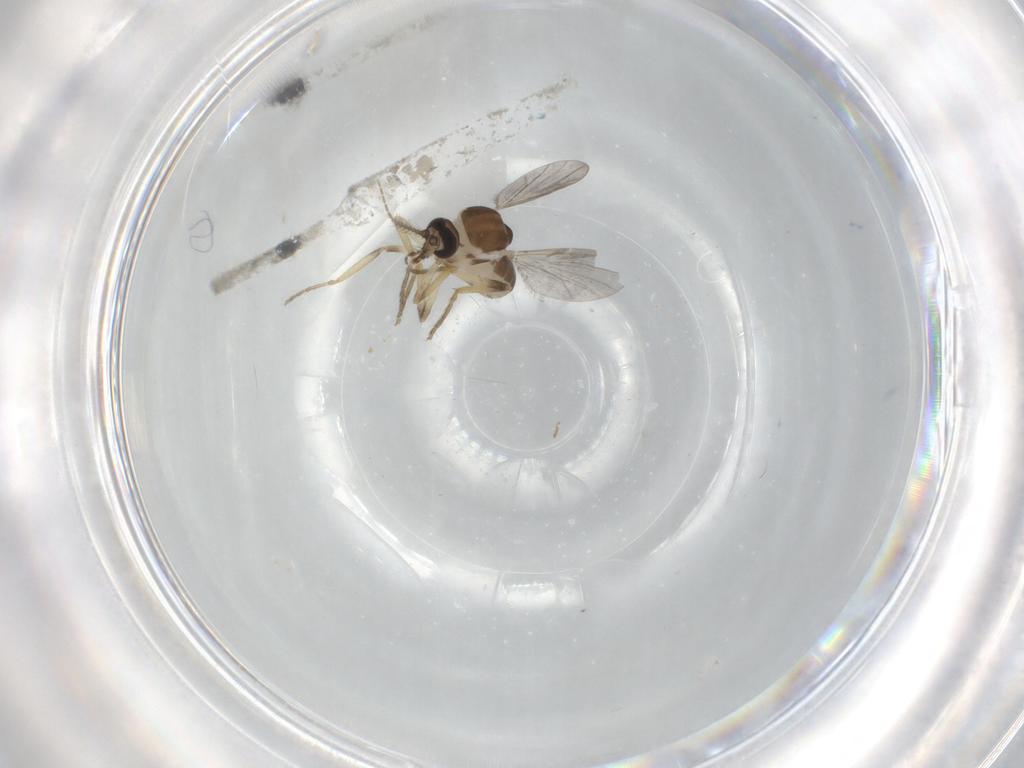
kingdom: Animalia
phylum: Arthropoda
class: Insecta
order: Diptera
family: Ceratopogonidae
